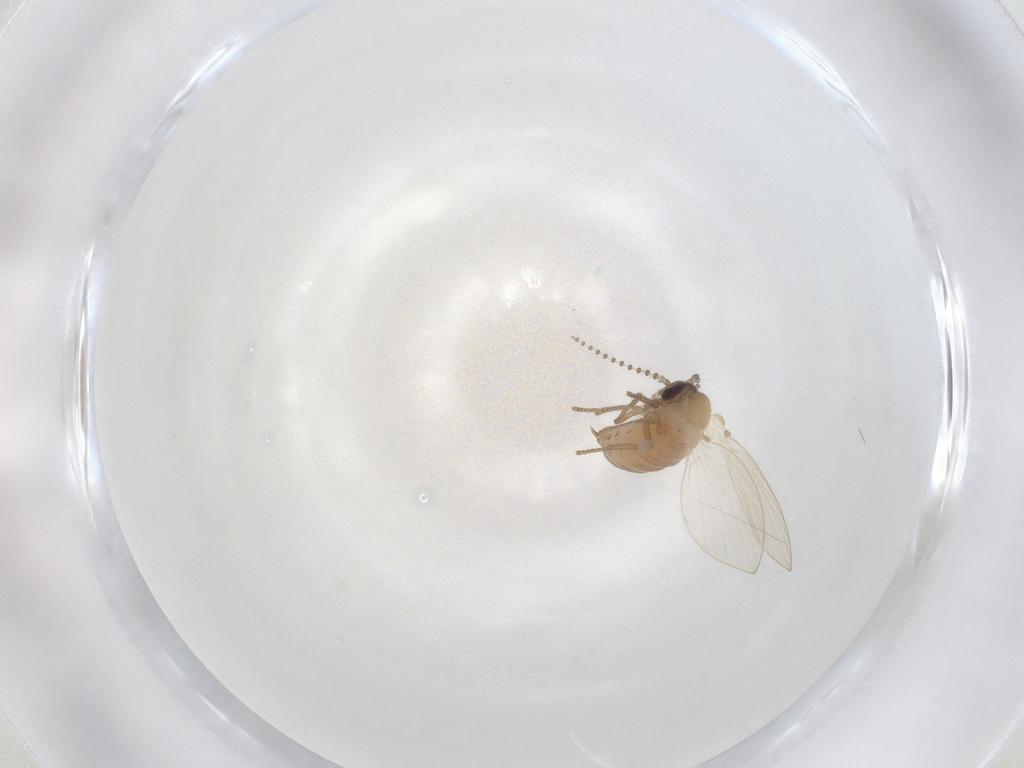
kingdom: Animalia
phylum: Arthropoda
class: Insecta
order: Diptera
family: Psychodidae
